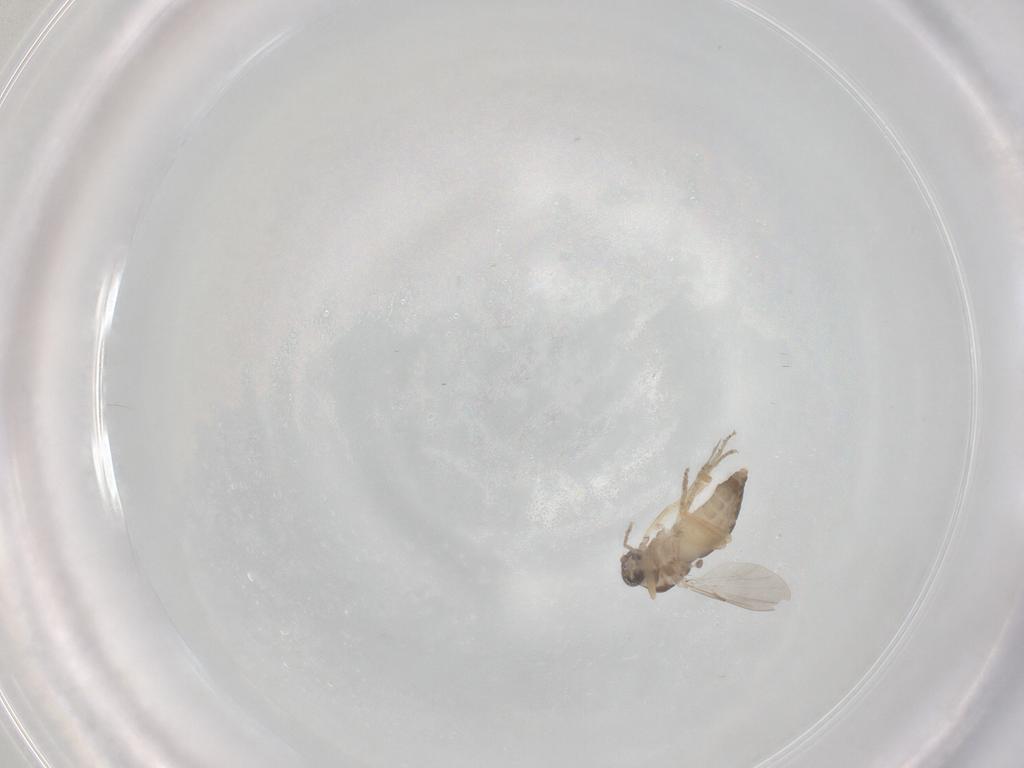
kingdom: Animalia
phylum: Arthropoda
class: Insecta
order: Diptera
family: Ceratopogonidae
